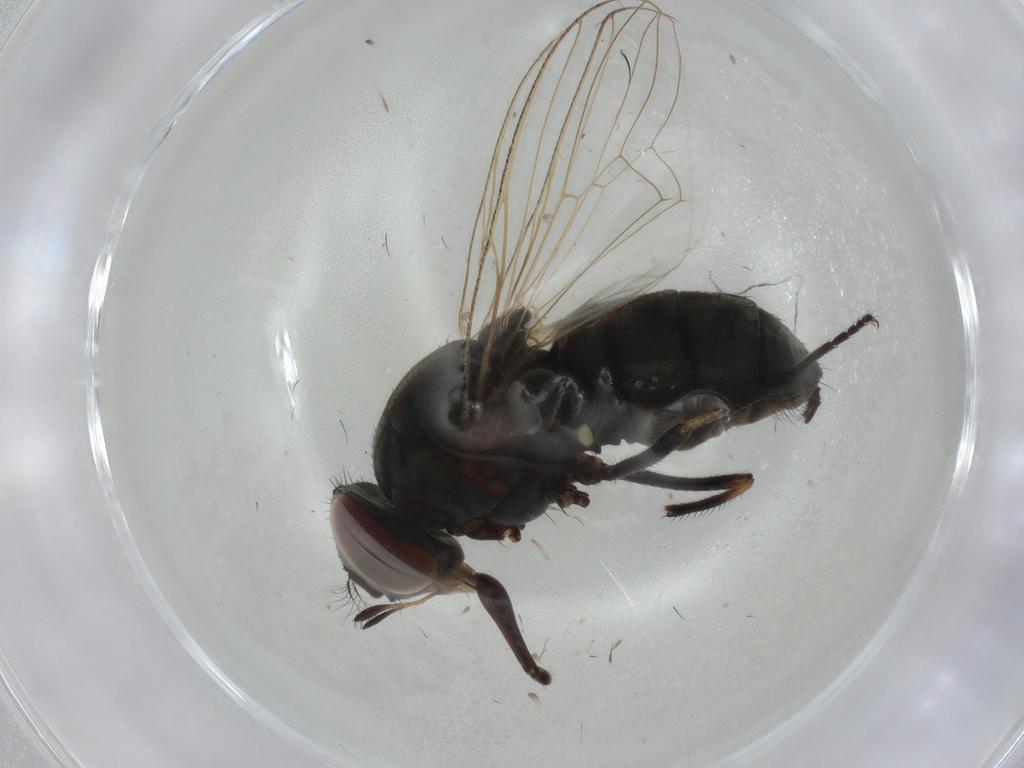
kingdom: Animalia
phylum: Arthropoda
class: Insecta
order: Diptera
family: Muscidae
